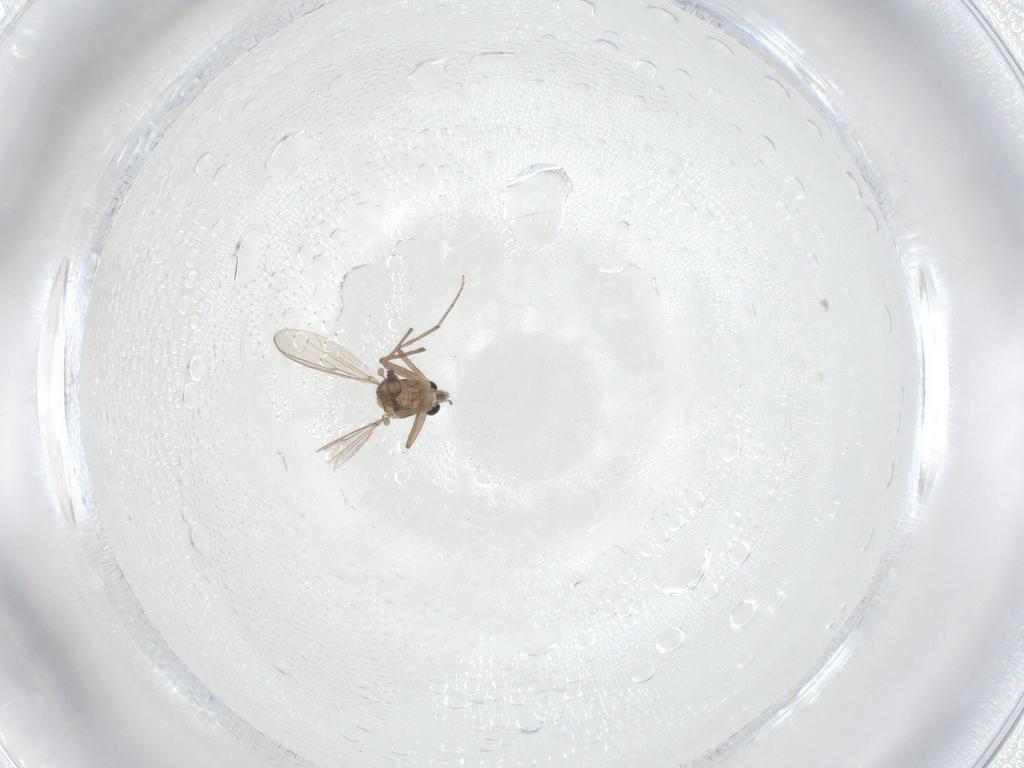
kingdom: Animalia
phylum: Arthropoda
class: Insecta
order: Diptera
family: Chironomidae
